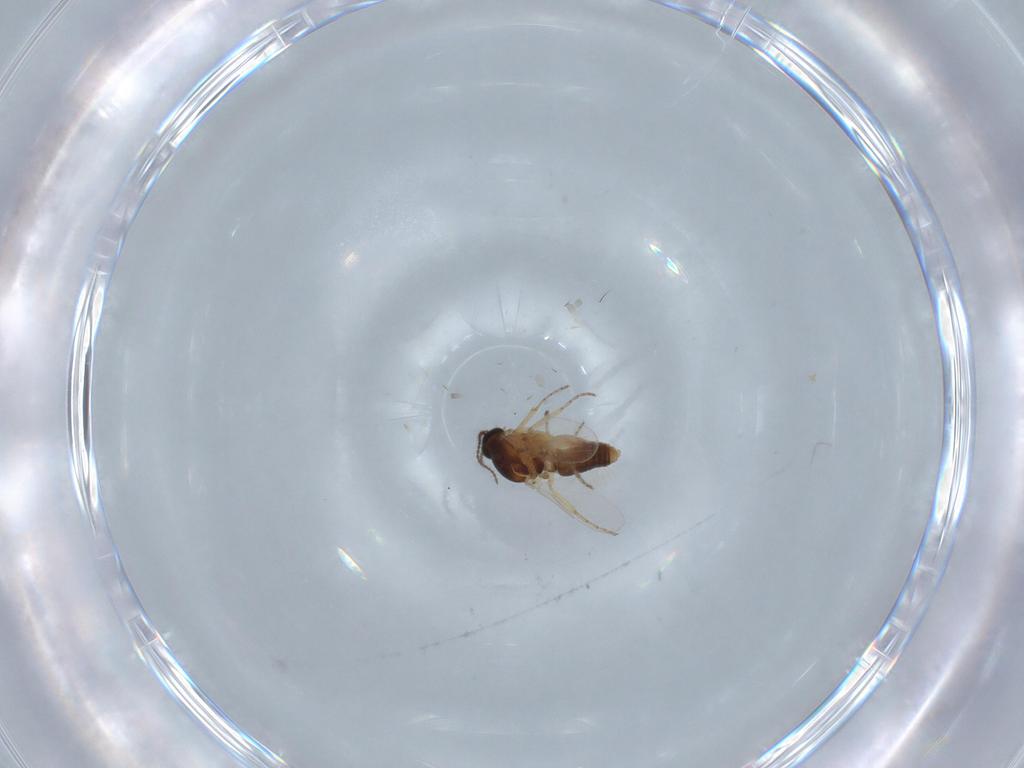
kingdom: Animalia
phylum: Arthropoda
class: Insecta
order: Diptera
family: Ceratopogonidae
